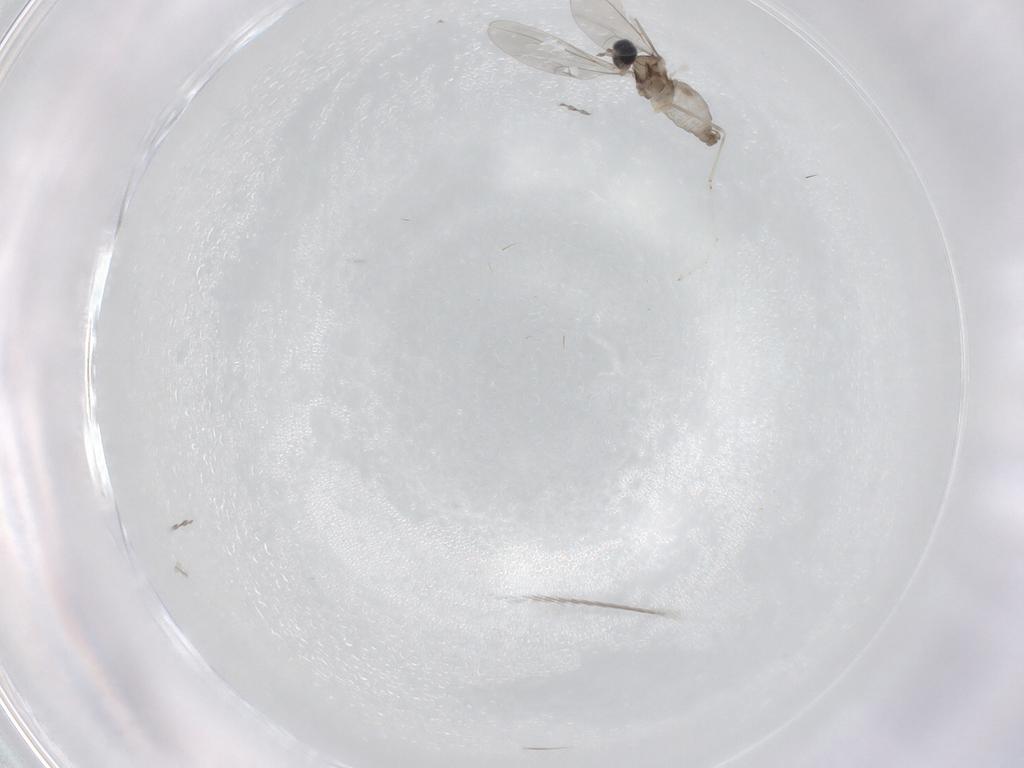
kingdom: Animalia
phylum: Arthropoda
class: Insecta
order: Diptera
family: Cecidomyiidae
